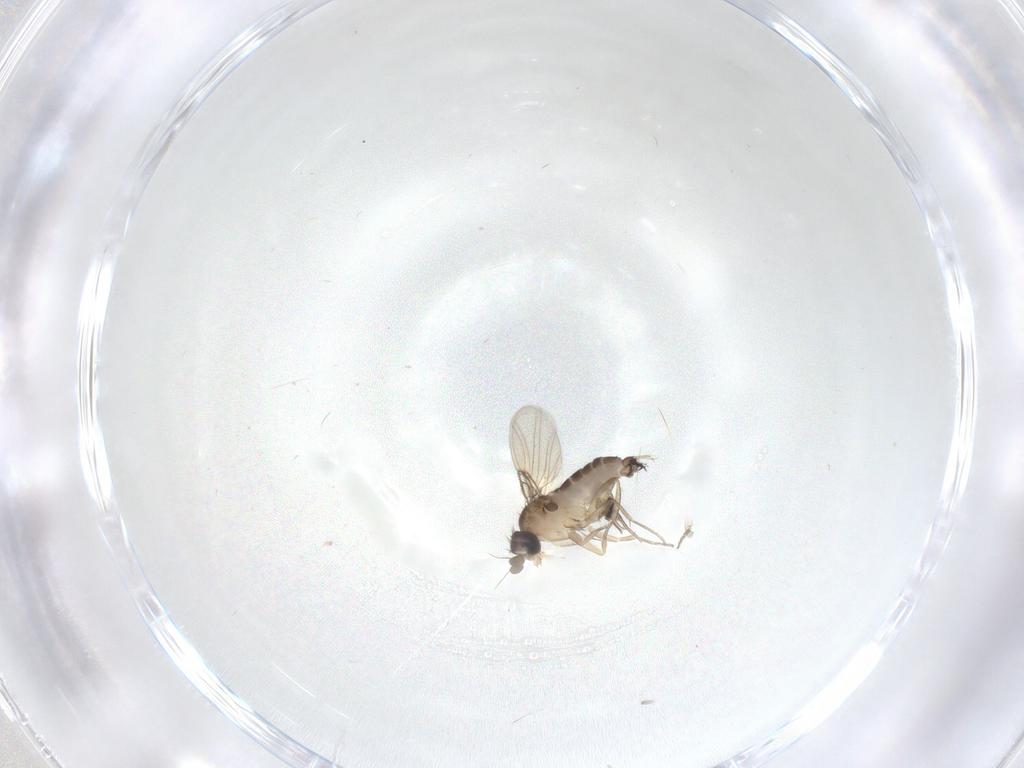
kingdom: Animalia
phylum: Arthropoda
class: Insecta
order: Diptera
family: Phoridae
